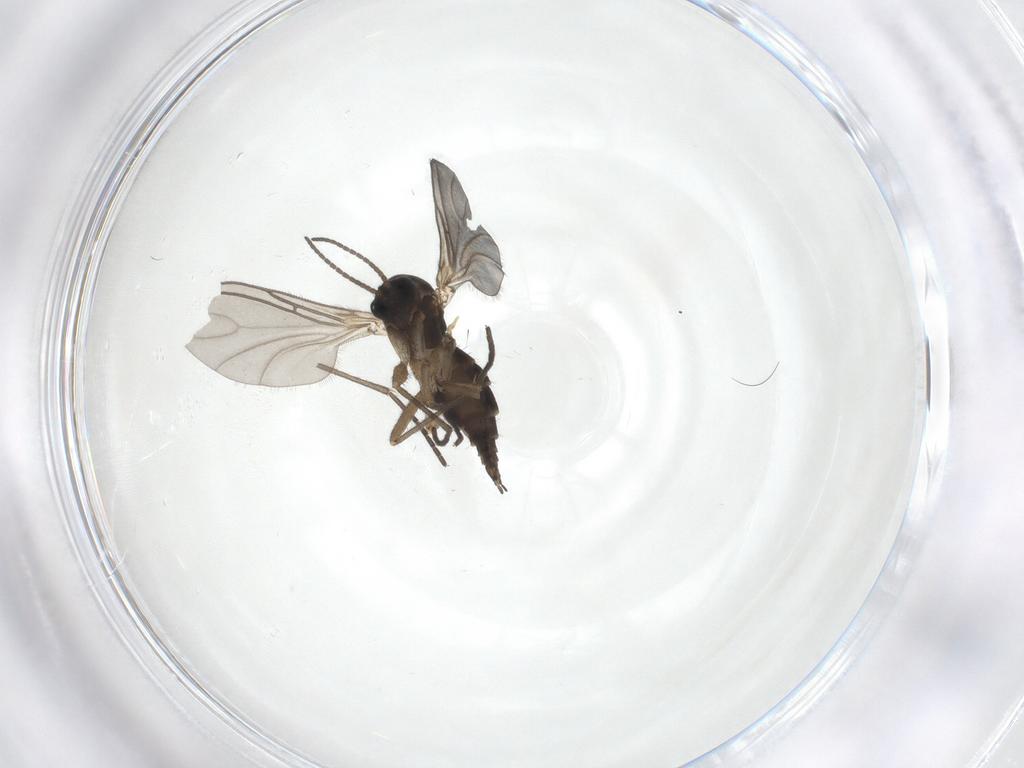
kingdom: Animalia
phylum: Arthropoda
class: Insecta
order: Diptera
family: Sciaridae
